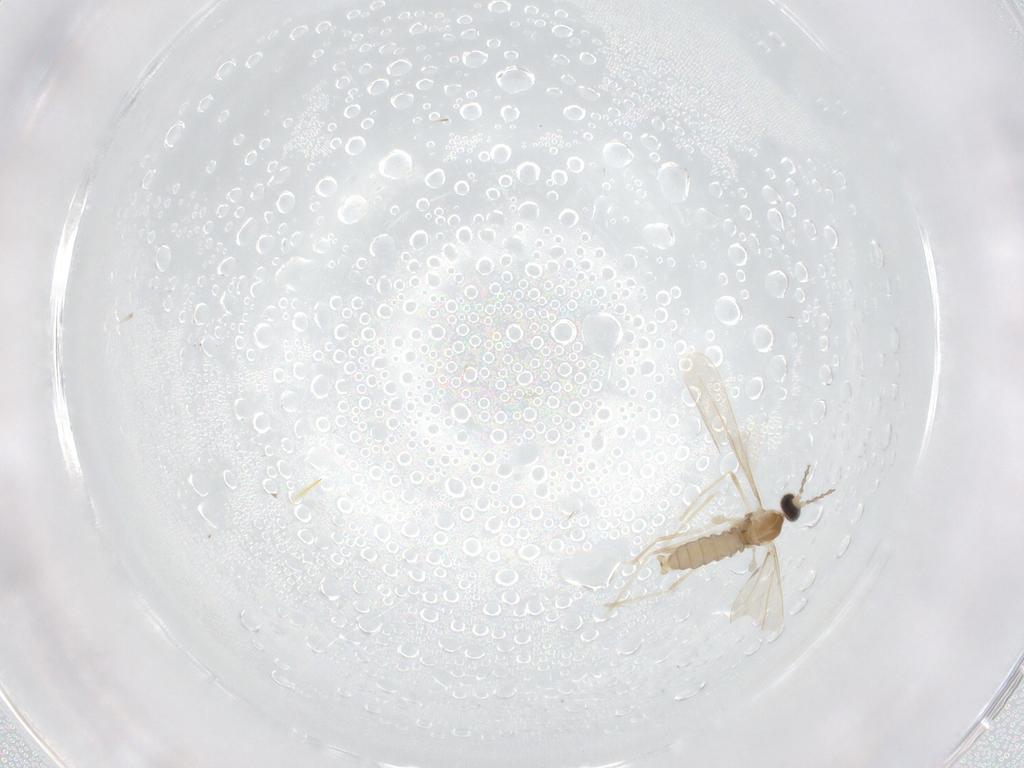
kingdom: Animalia
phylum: Arthropoda
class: Insecta
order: Diptera
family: Cecidomyiidae
